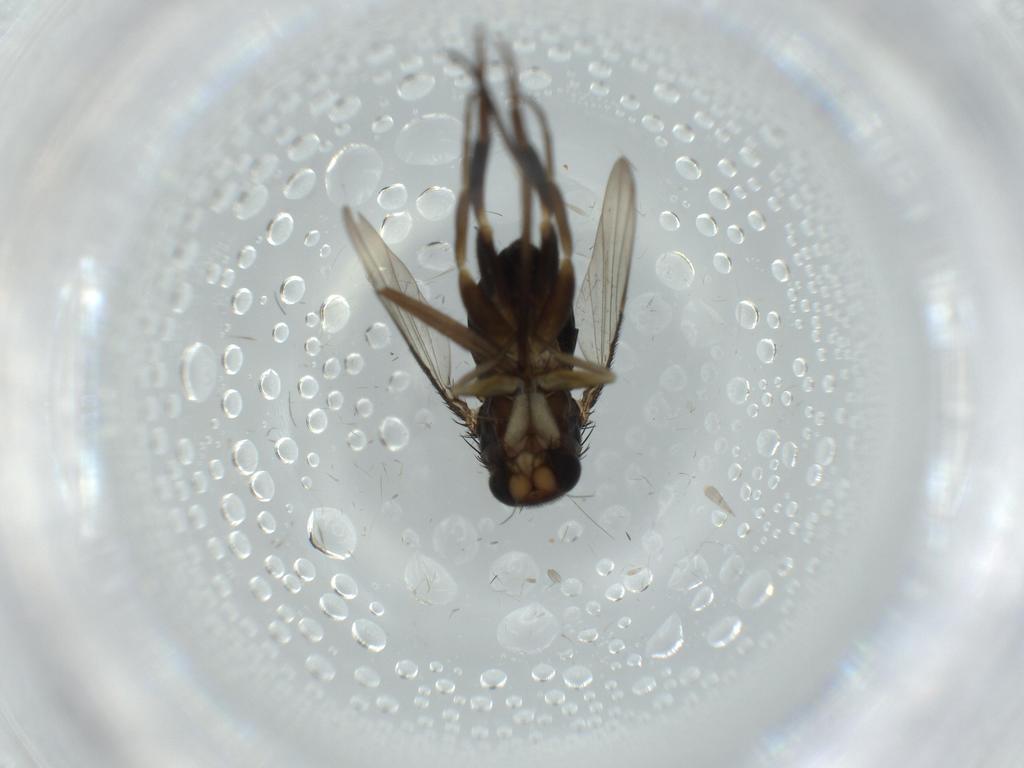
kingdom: Animalia
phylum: Arthropoda
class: Insecta
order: Diptera
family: Phoridae
